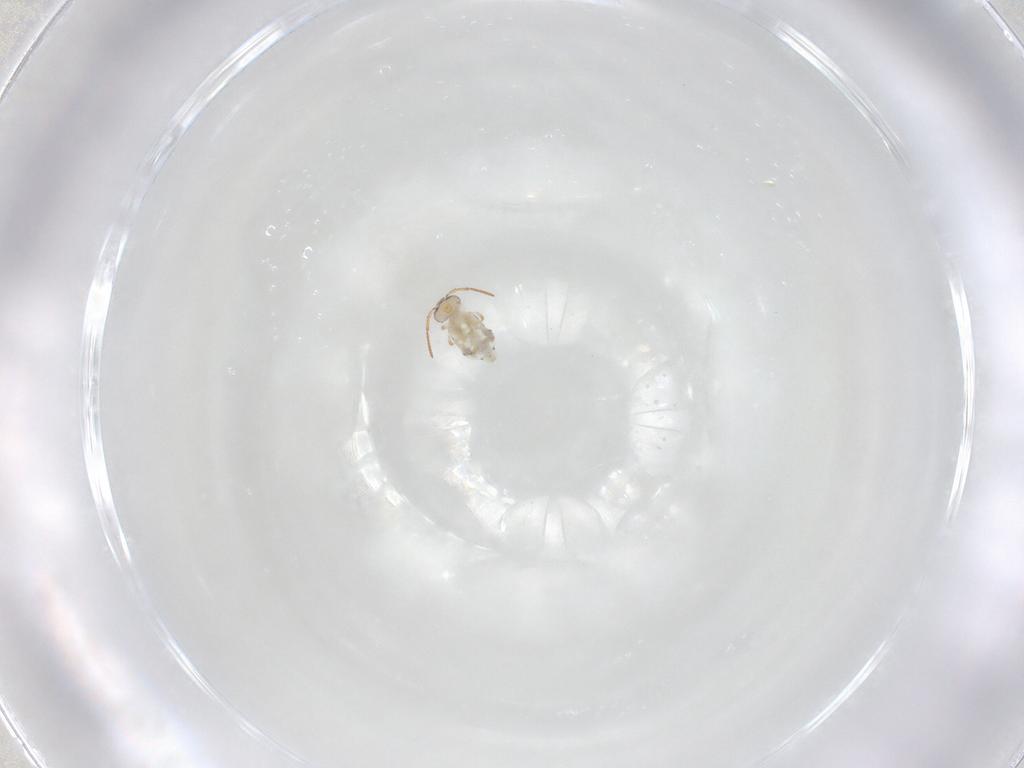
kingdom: Animalia
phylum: Arthropoda
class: Collembola
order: Symphypleona
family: Bourletiellidae
